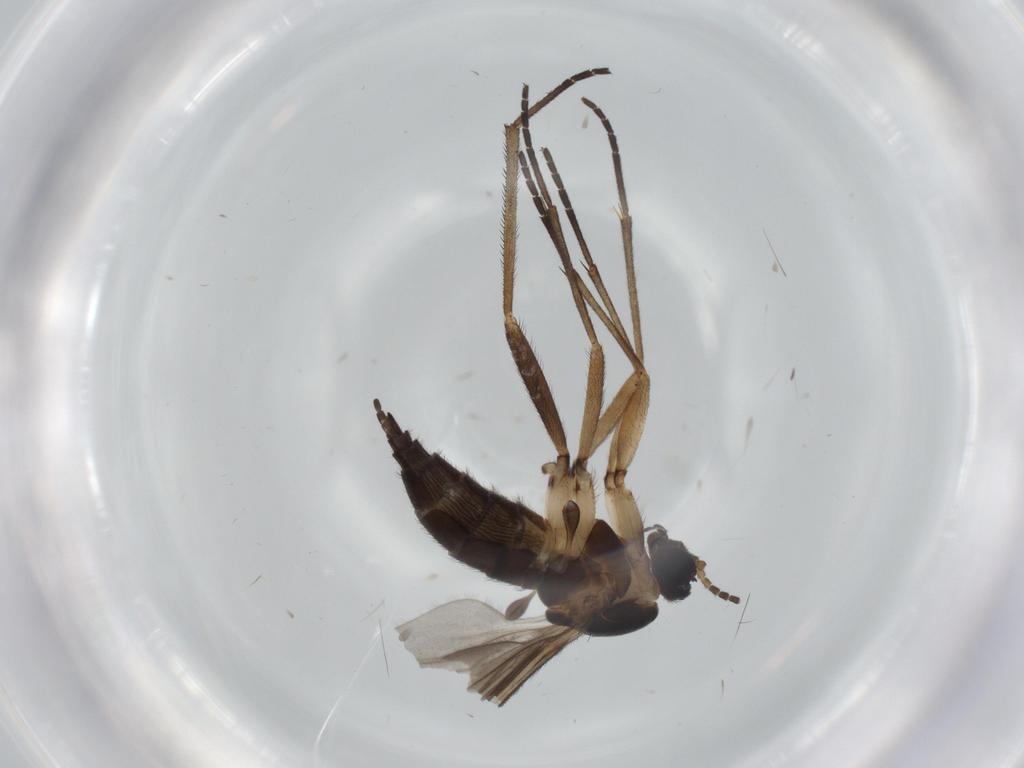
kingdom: Animalia
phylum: Arthropoda
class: Insecta
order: Diptera
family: Sciaridae
